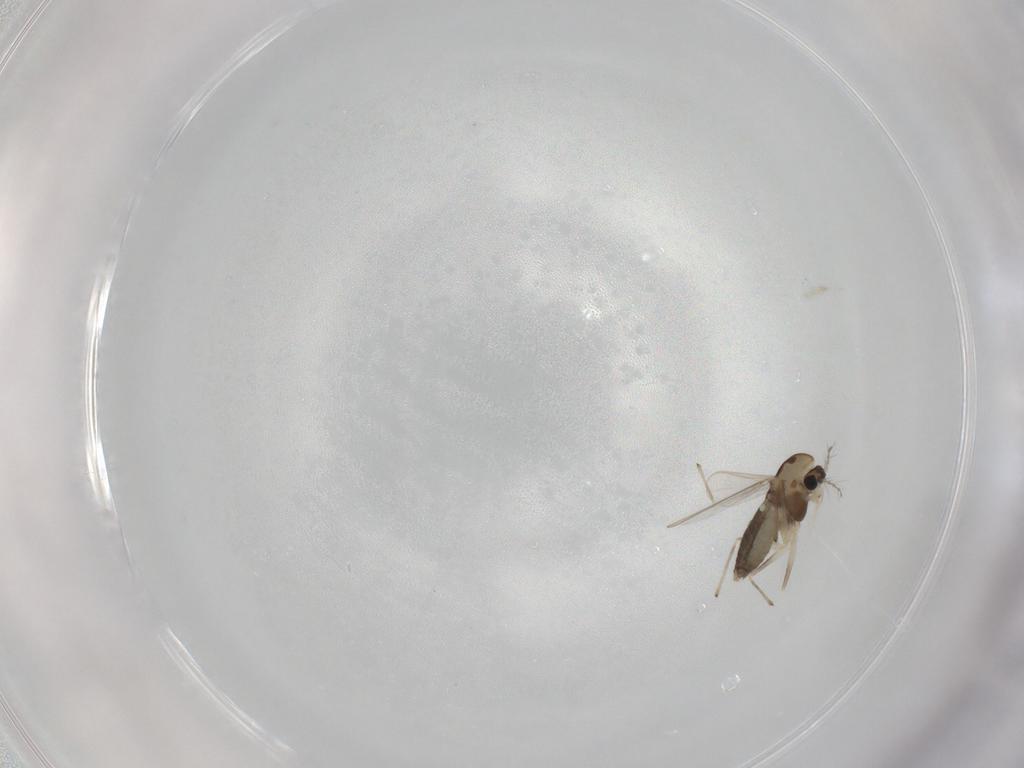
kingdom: Animalia
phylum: Arthropoda
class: Insecta
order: Diptera
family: Chironomidae
